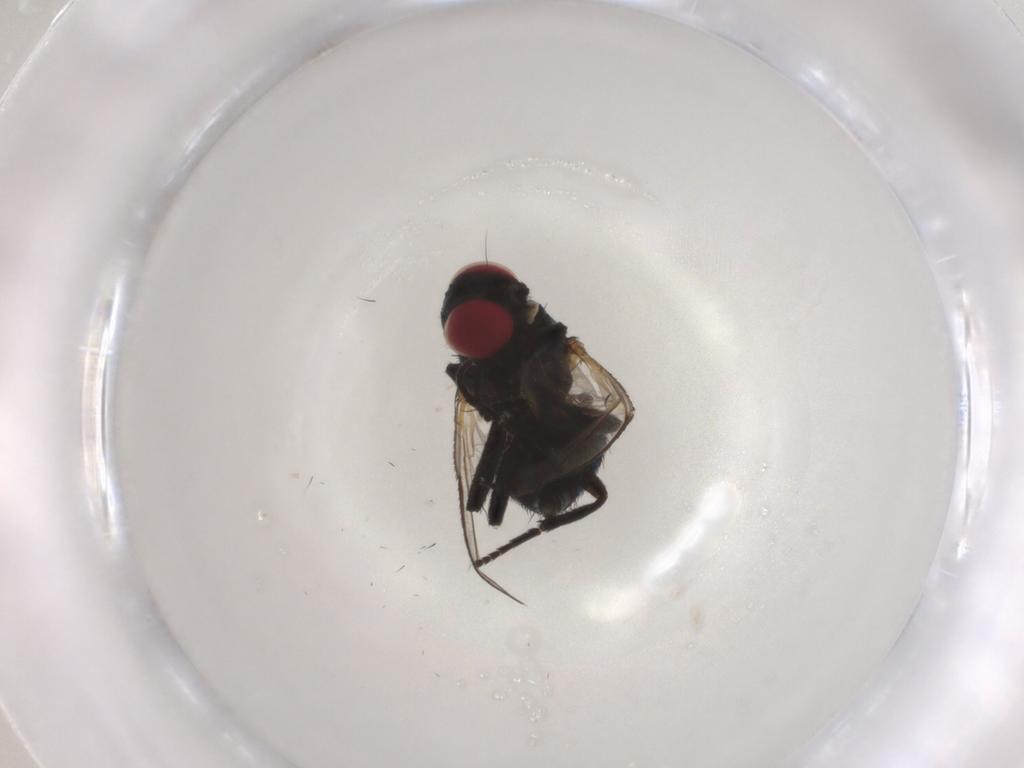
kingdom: Animalia
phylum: Arthropoda
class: Insecta
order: Diptera
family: Agromyzidae
